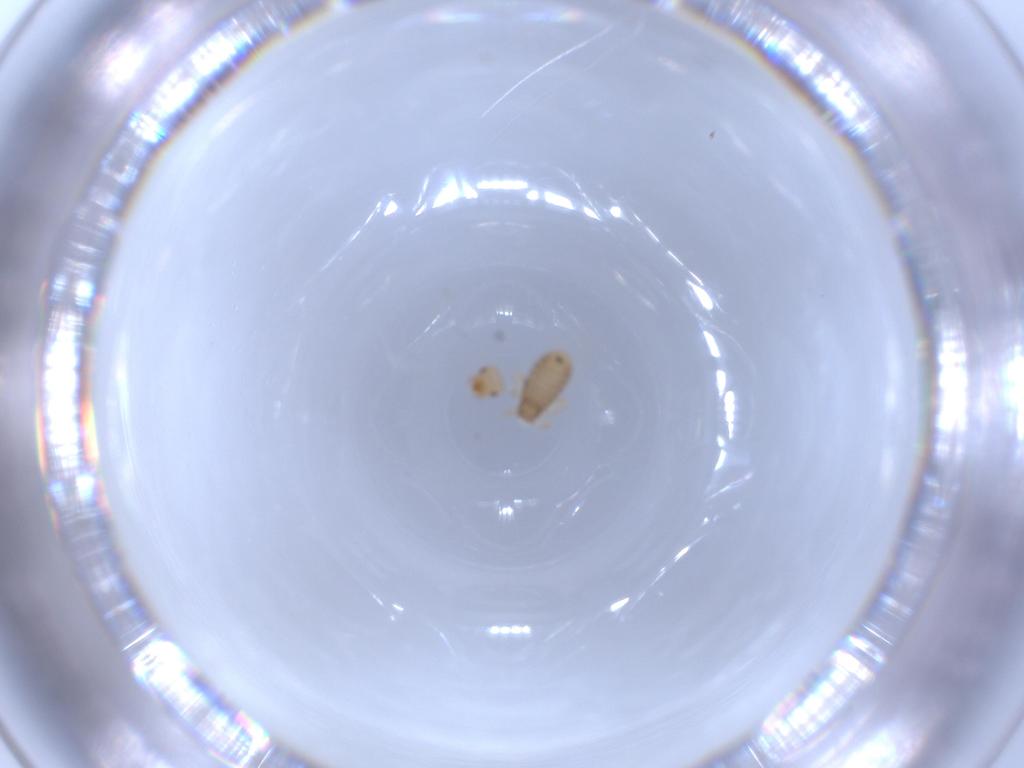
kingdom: Animalia
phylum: Arthropoda
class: Insecta
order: Psocodea
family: Liposcelididae
